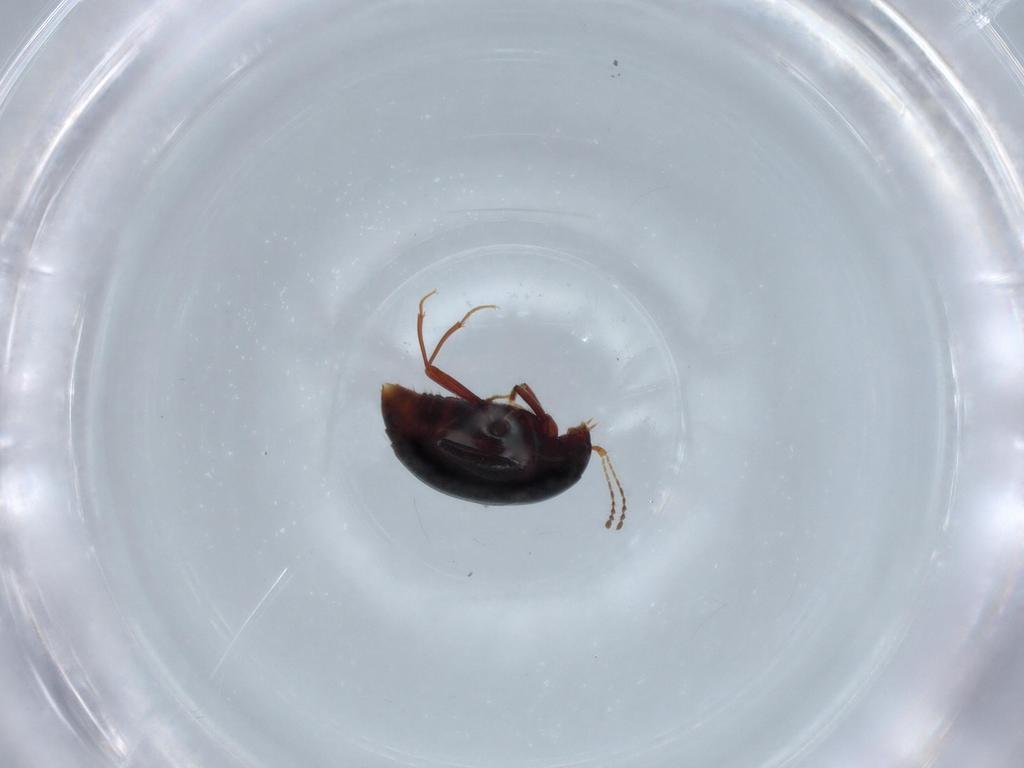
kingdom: Animalia
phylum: Arthropoda
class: Insecta
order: Coleoptera
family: Staphylinidae
